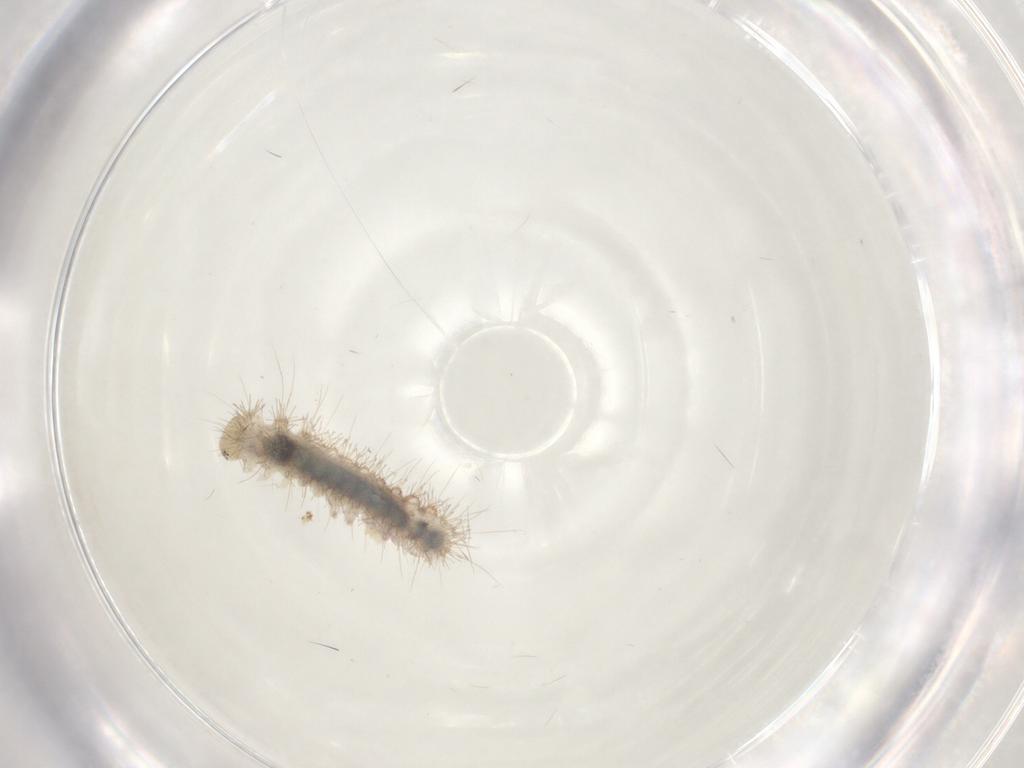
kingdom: Animalia
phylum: Arthropoda
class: Insecta
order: Lepidoptera
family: Erebidae
